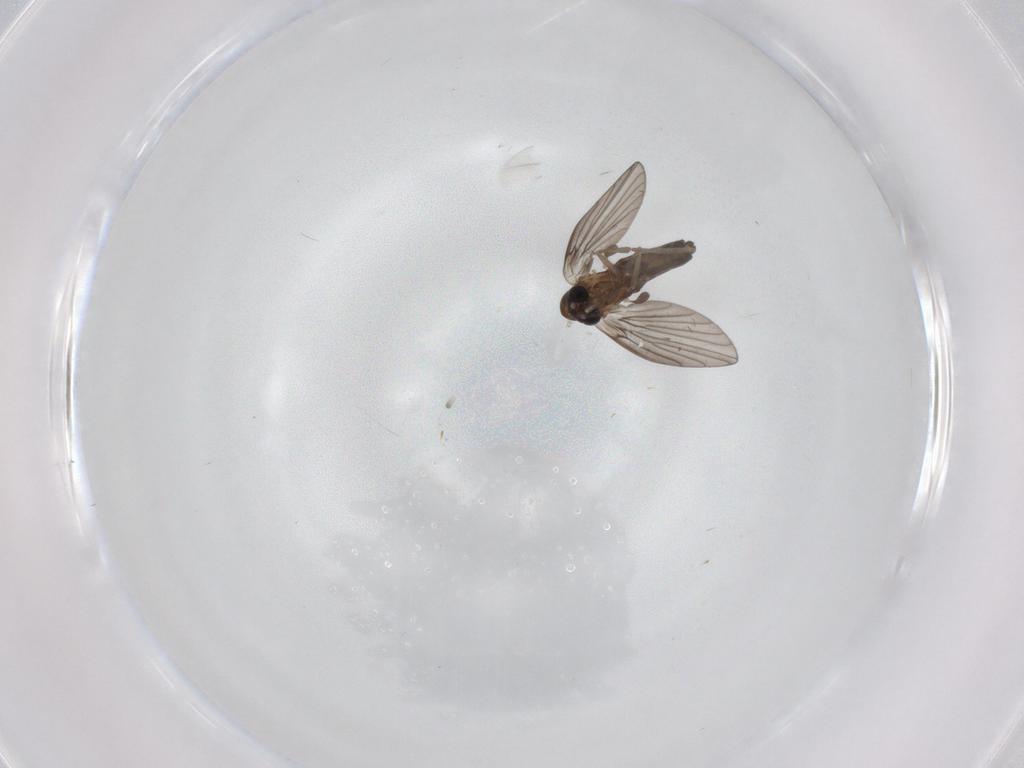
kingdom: Animalia
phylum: Arthropoda
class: Insecta
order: Diptera
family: Psychodidae
